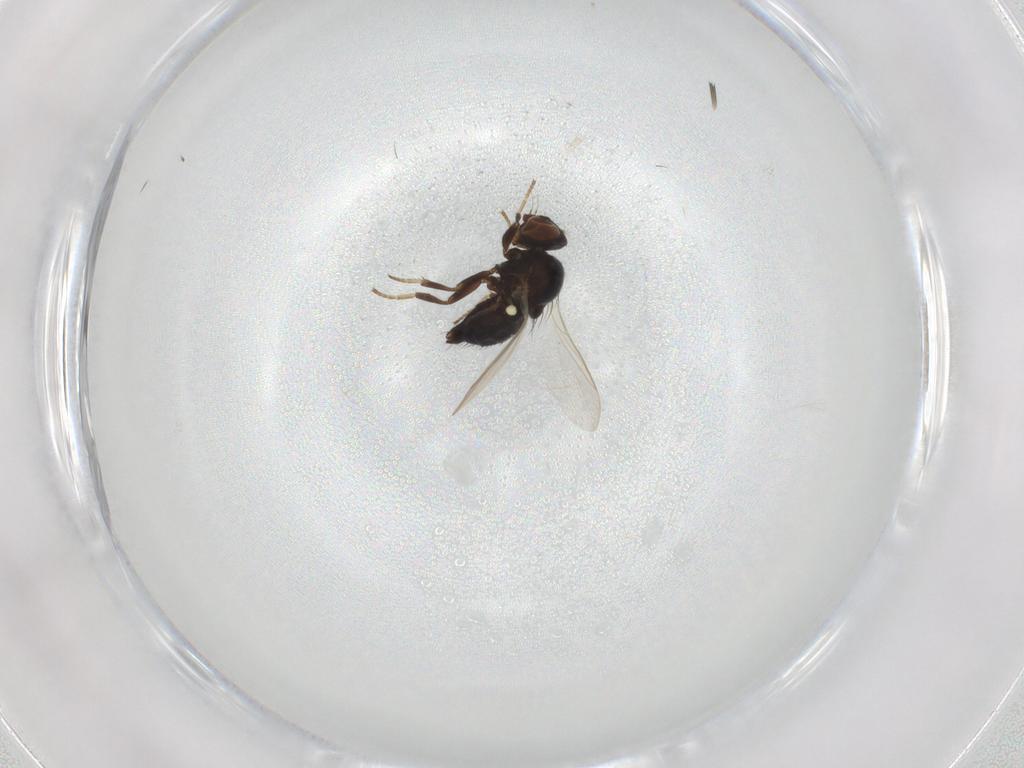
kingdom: Animalia
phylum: Arthropoda
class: Insecta
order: Diptera
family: Agromyzidae
